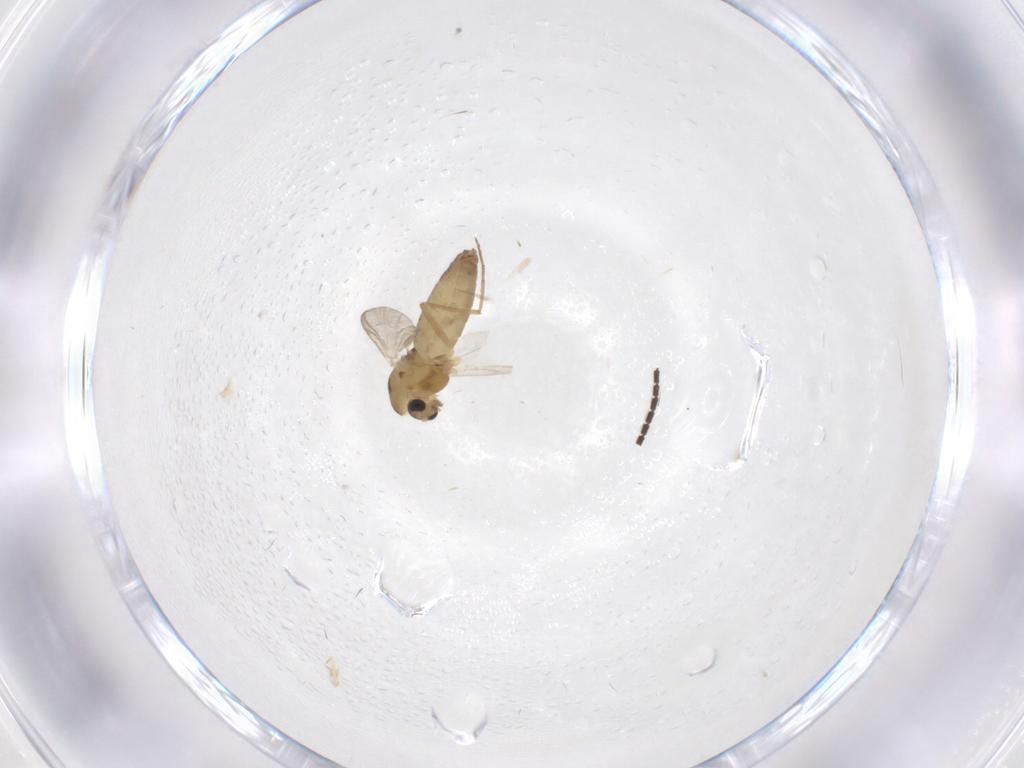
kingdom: Animalia
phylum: Arthropoda
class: Insecta
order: Diptera
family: Chironomidae
